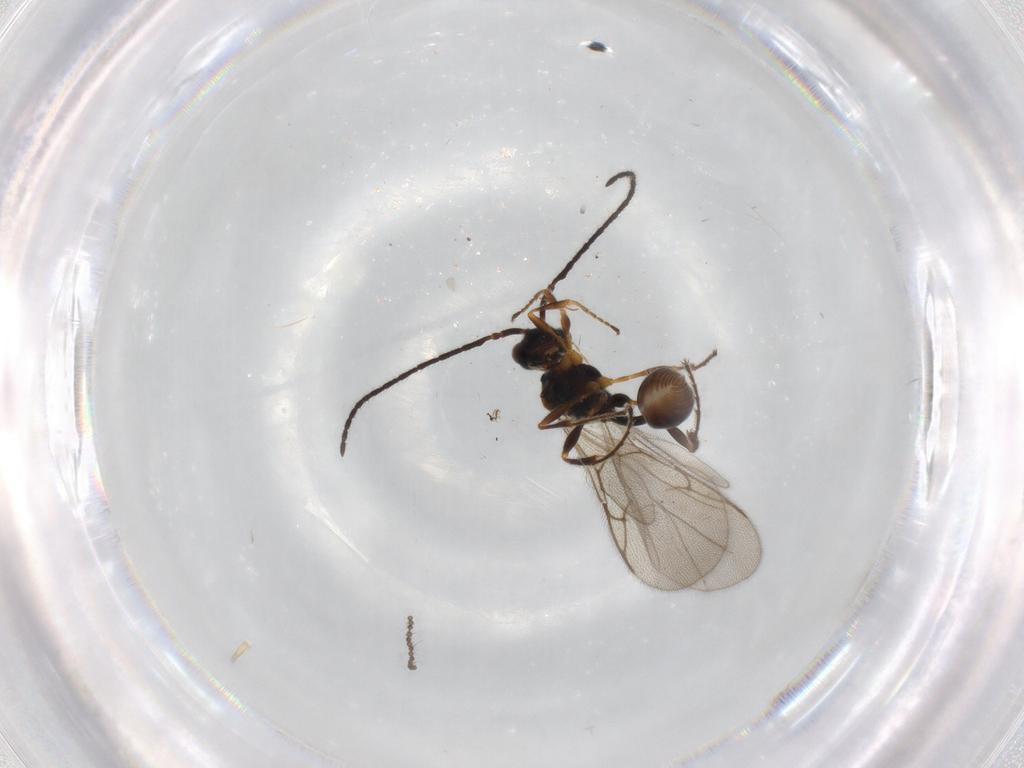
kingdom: Animalia
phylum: Arthropoda
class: Insecta
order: Hymenoptera
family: Diapriidae
